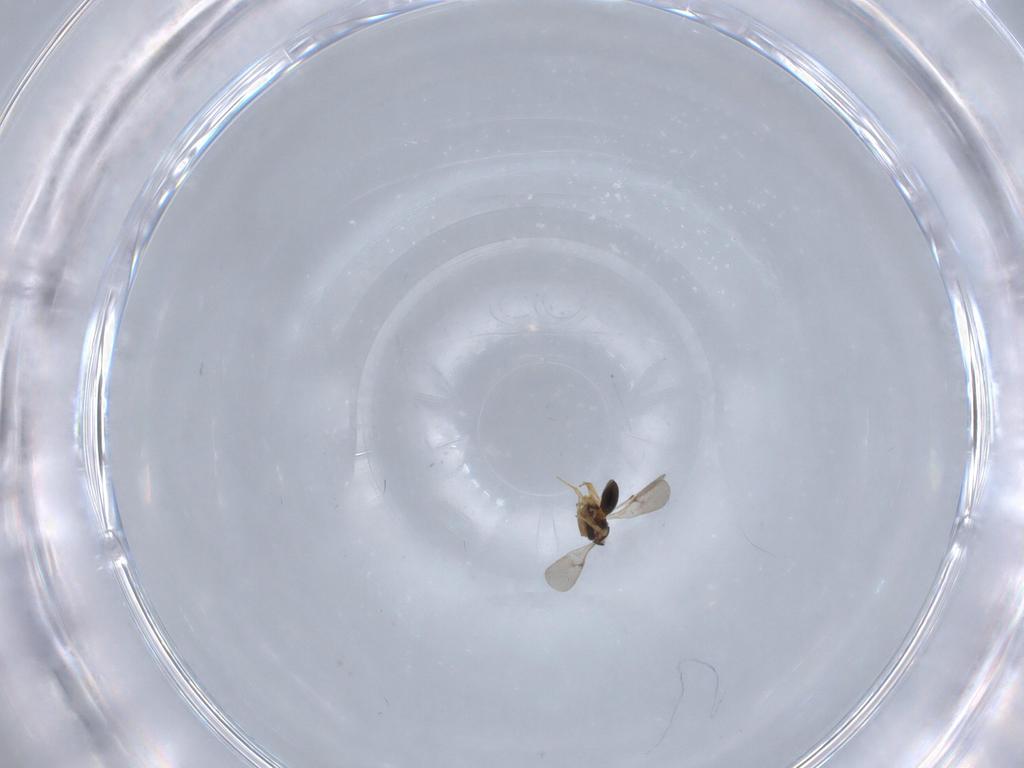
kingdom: Animalia
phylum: Arthropoda
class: Insecta
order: Hymenoptera
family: Scelionidae
